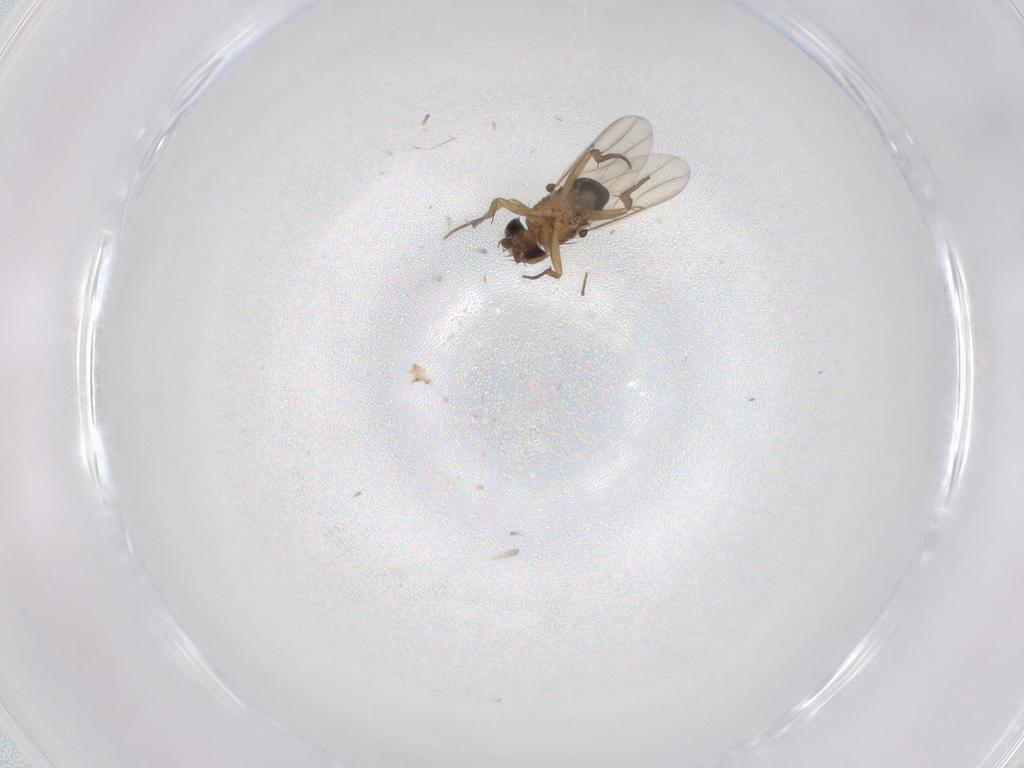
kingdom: Animalia
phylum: Arthropoda
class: Insecta
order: Diptera
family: Phoridae
